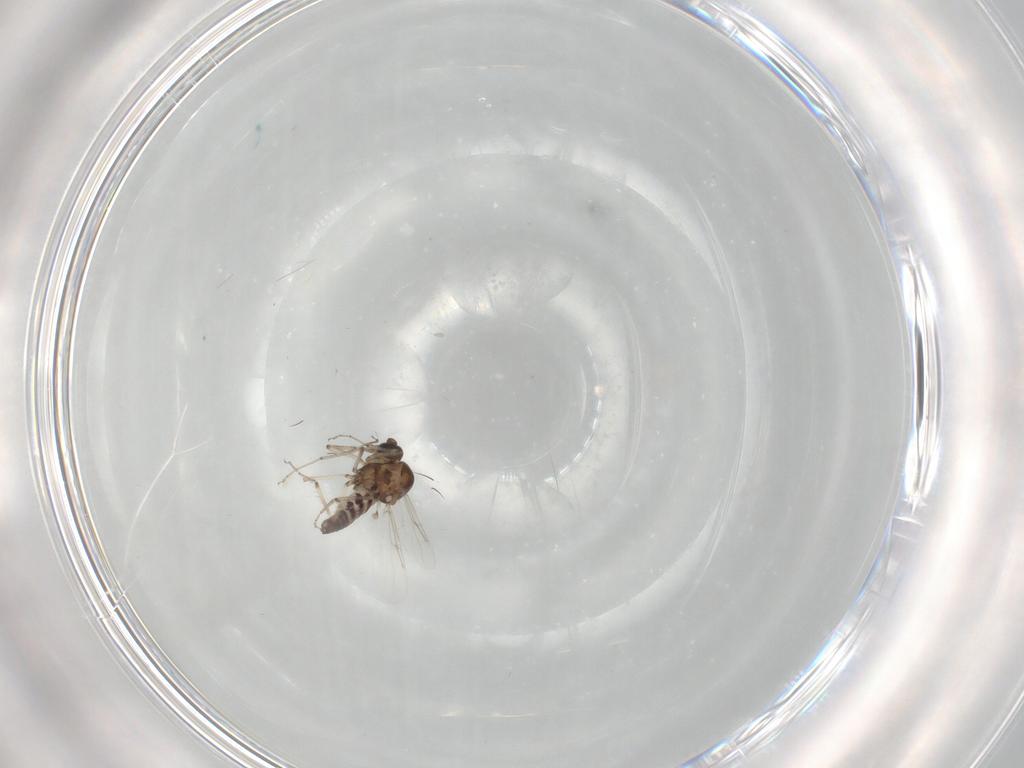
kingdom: Animalia
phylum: Arthropoda
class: Insecta
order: Diptera
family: Ceratopogonidae
